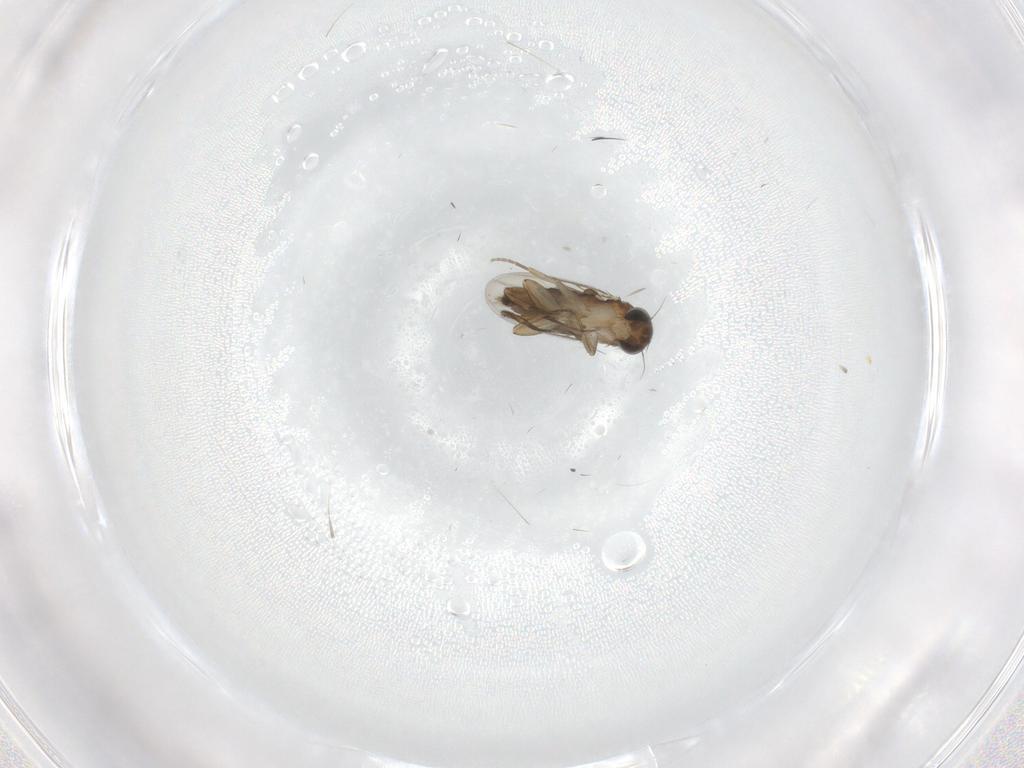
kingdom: Animalia
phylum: Arthropoda
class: Insecta
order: Diptera
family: Phoridae
